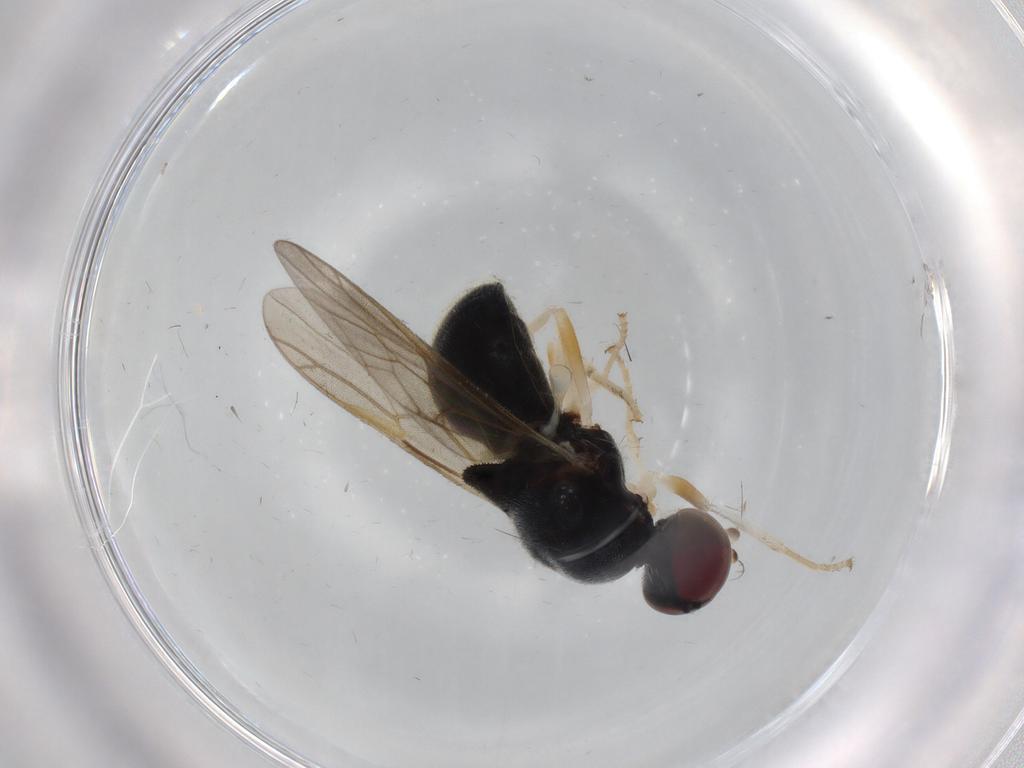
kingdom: Animalia
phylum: Arthropoda
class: Insecta
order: Diptera
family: Stratiomyidae
